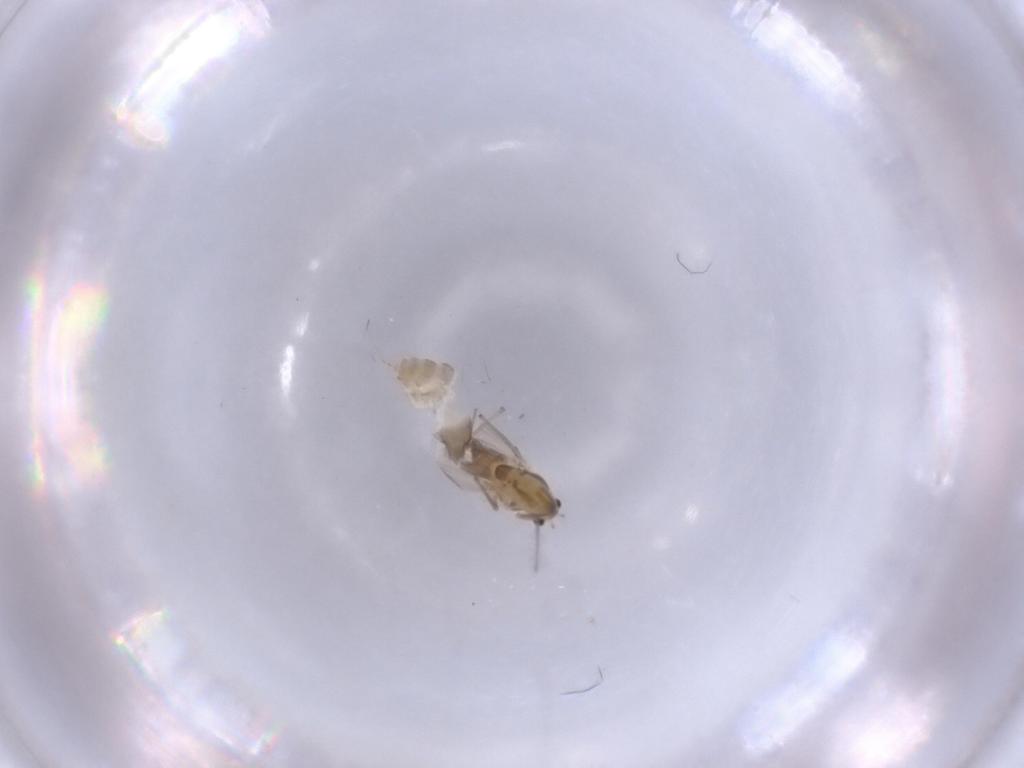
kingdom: Animalia
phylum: Arthropoda
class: Insecta
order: Diptera
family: Chironomidae
